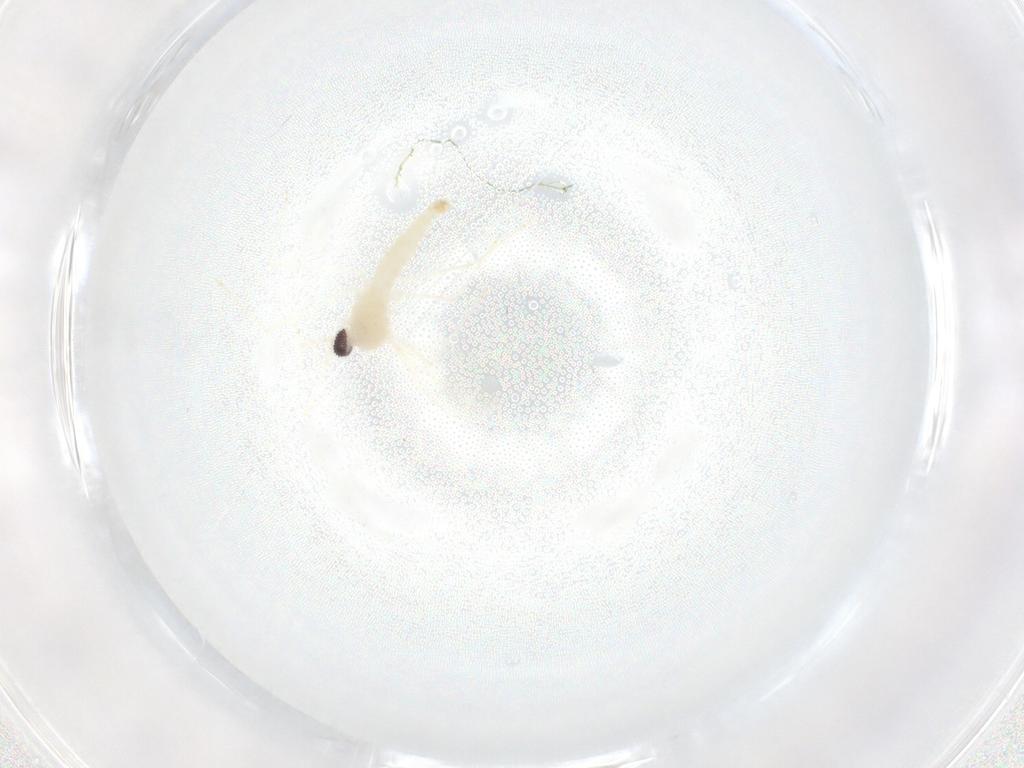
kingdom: Animalia
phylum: Arthropoda
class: Insecta
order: Diptera
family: Cecidomyiidae
